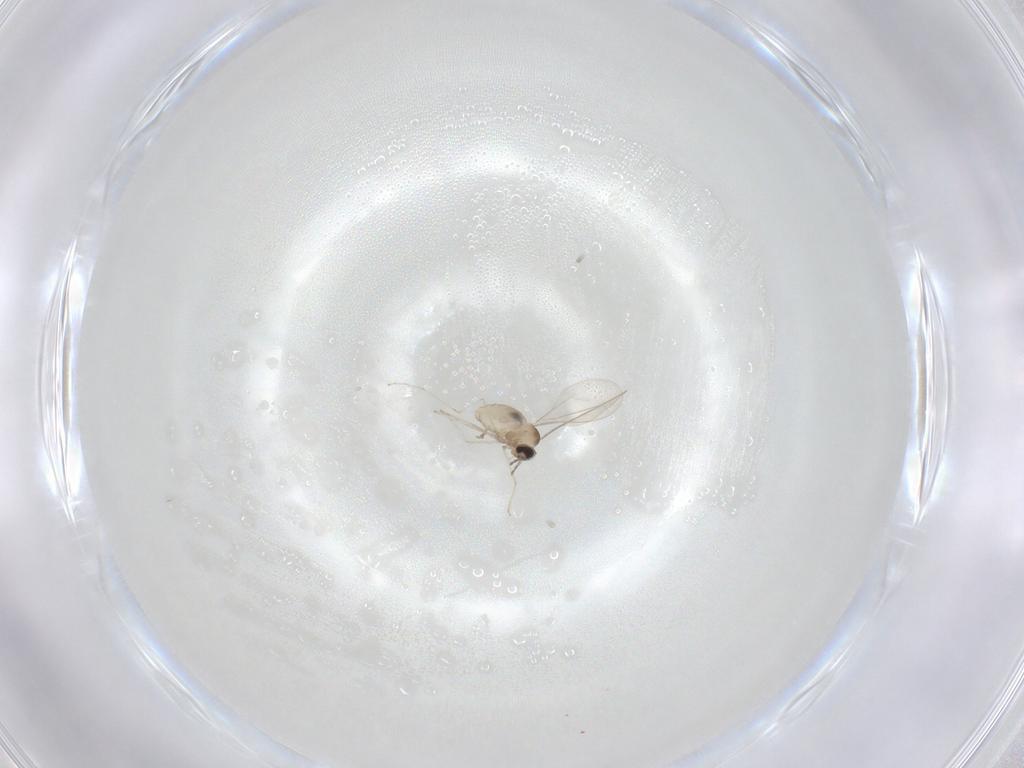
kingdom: Animalia
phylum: Arthropoda
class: Insecta
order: Diptera
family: Cecidomyiidae
